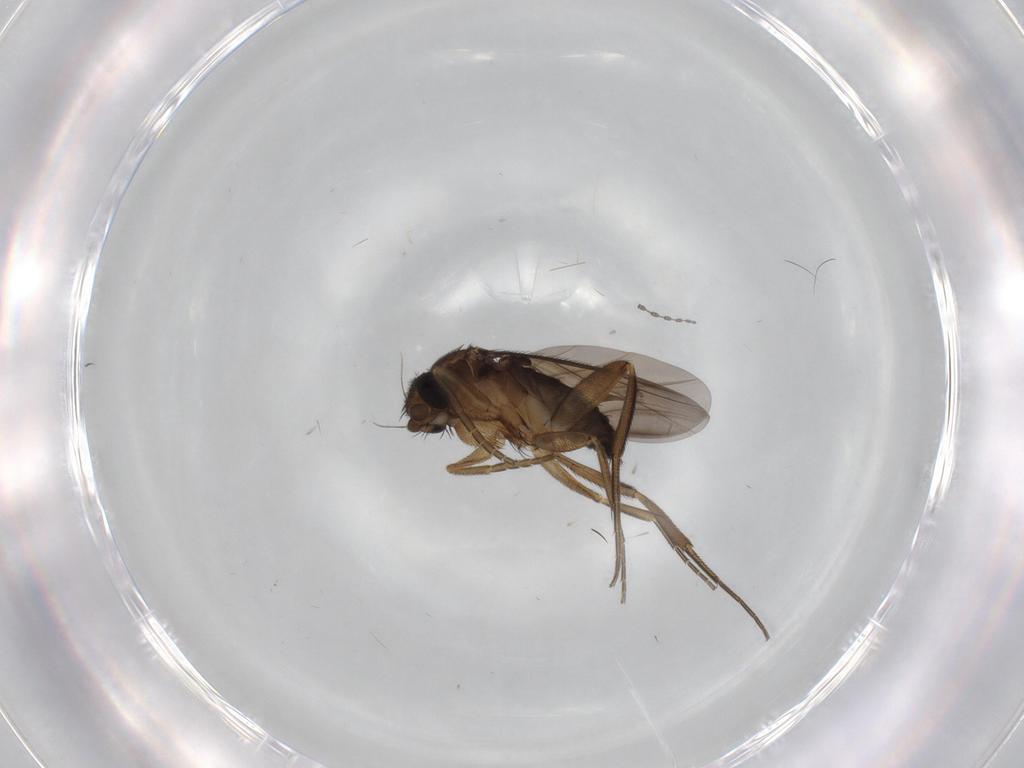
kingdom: Animalia
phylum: Arthropoda
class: Insecta
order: Diptera
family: Phoridae
